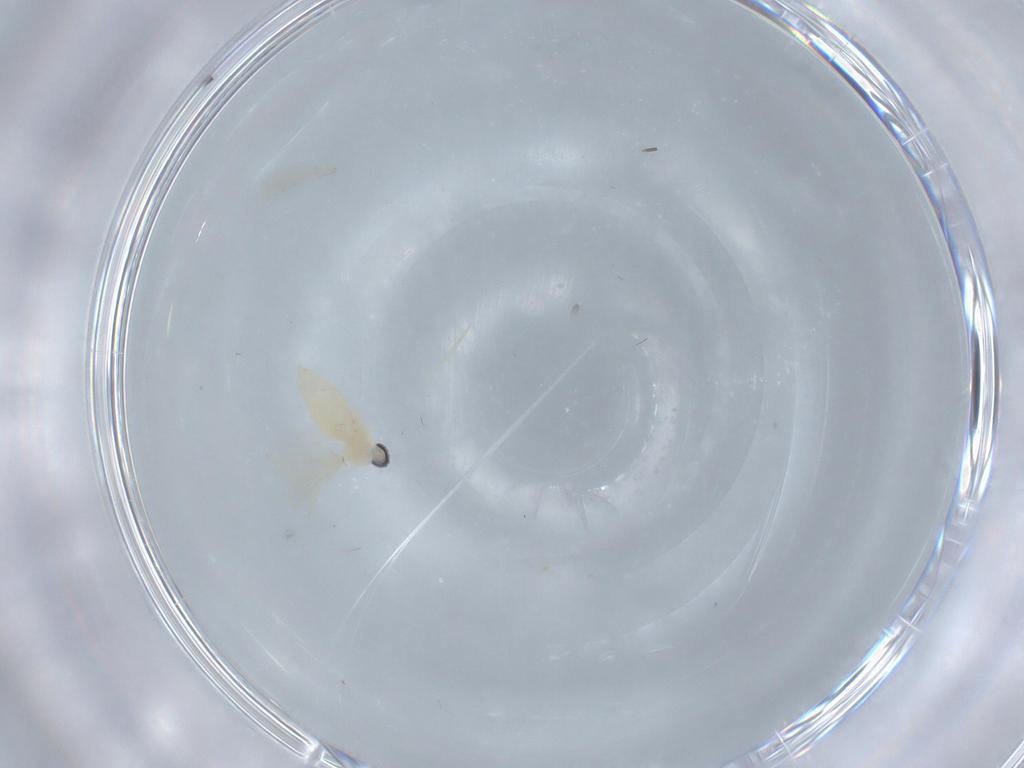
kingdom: Animalia
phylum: Arthropoda
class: Insecta
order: Diptera
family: Cecidomyiidae
